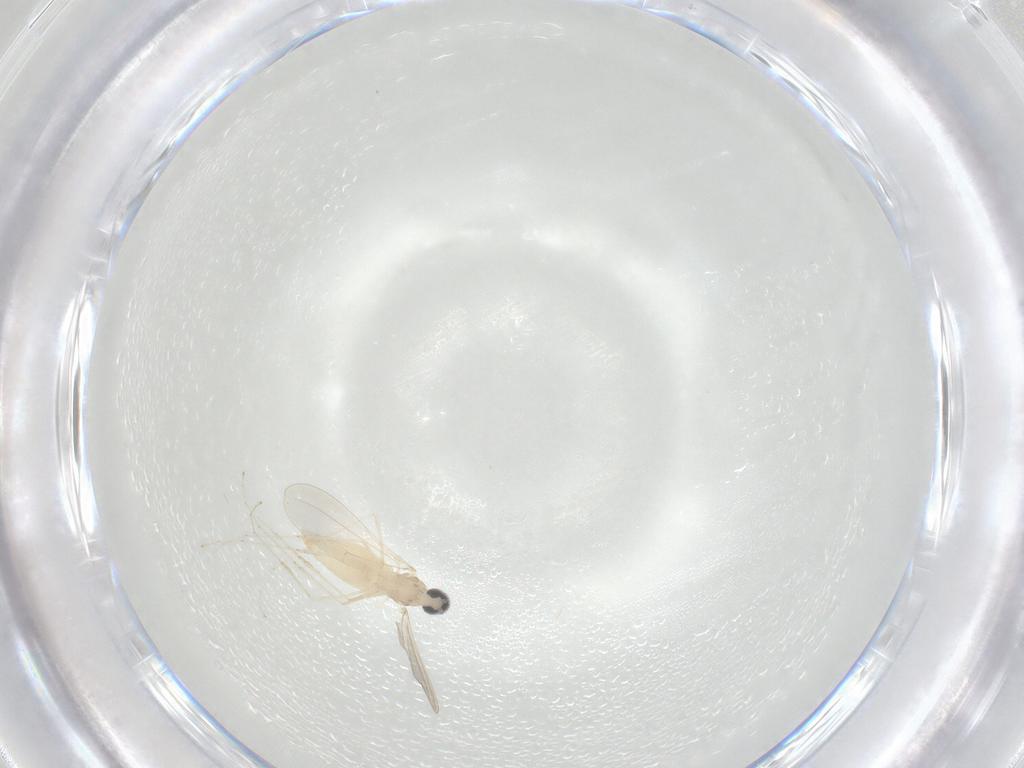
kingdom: Animalia
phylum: Arthropoda
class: Insecta
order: Diptera
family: Cecidomyiidae
